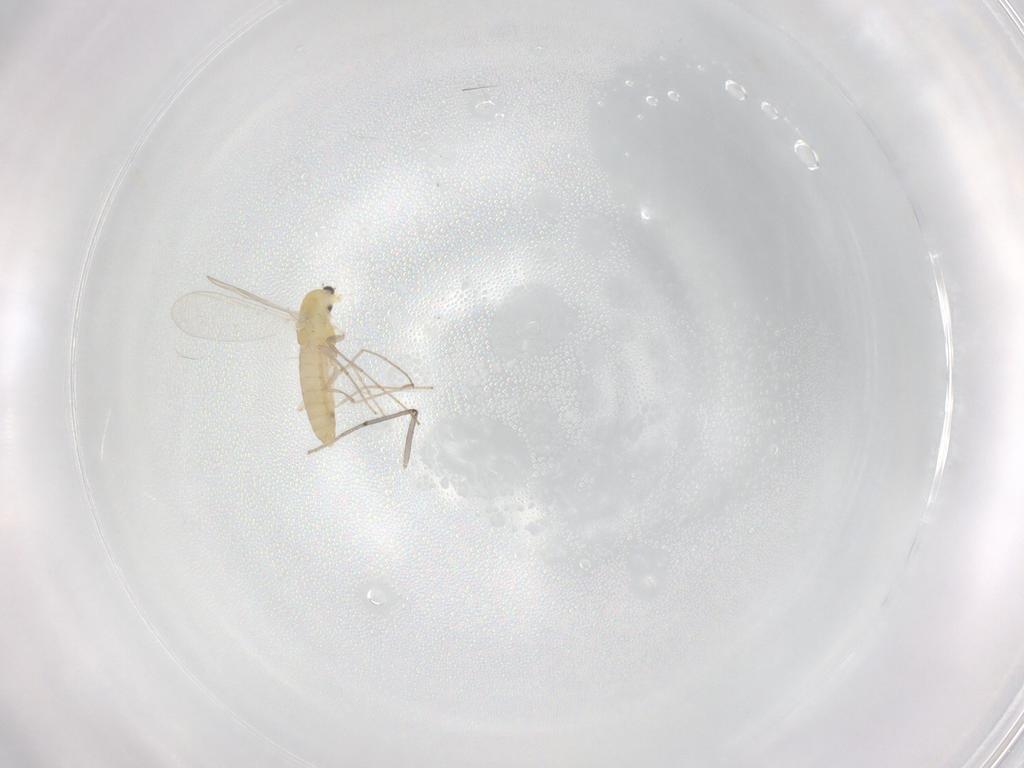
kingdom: Animalia
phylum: Arthropoda
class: Insecta
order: Diptera
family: Chironomidae
